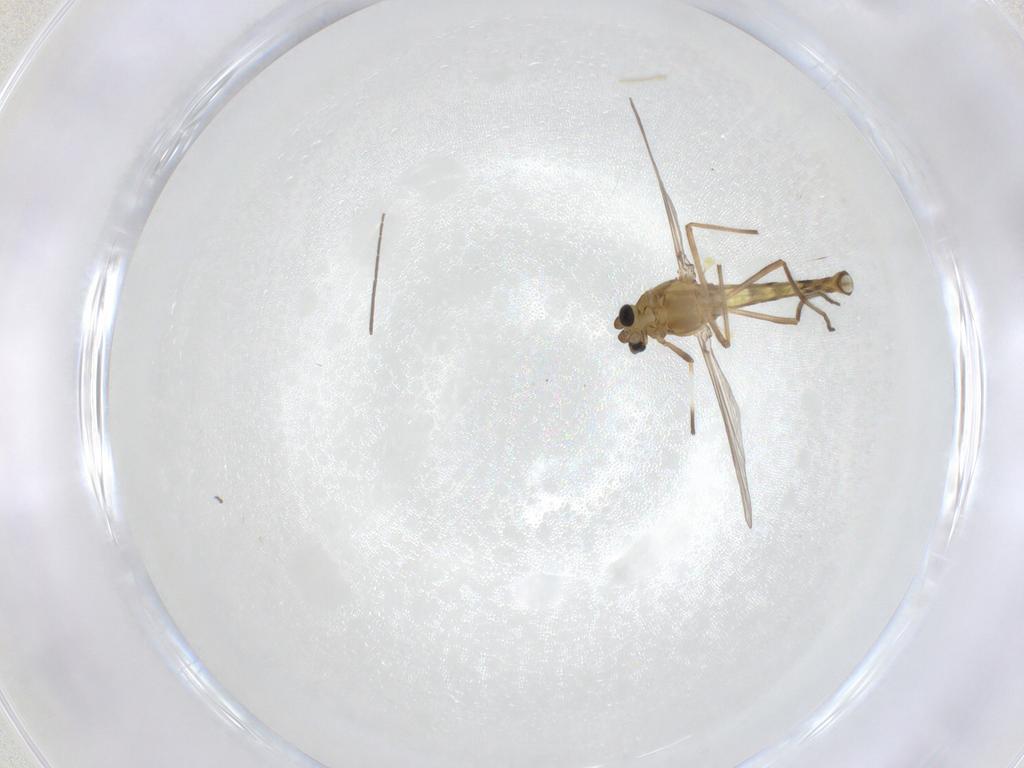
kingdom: Animalia
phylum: Arthropoda
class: Insecta
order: Diptera
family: Chironomidae
